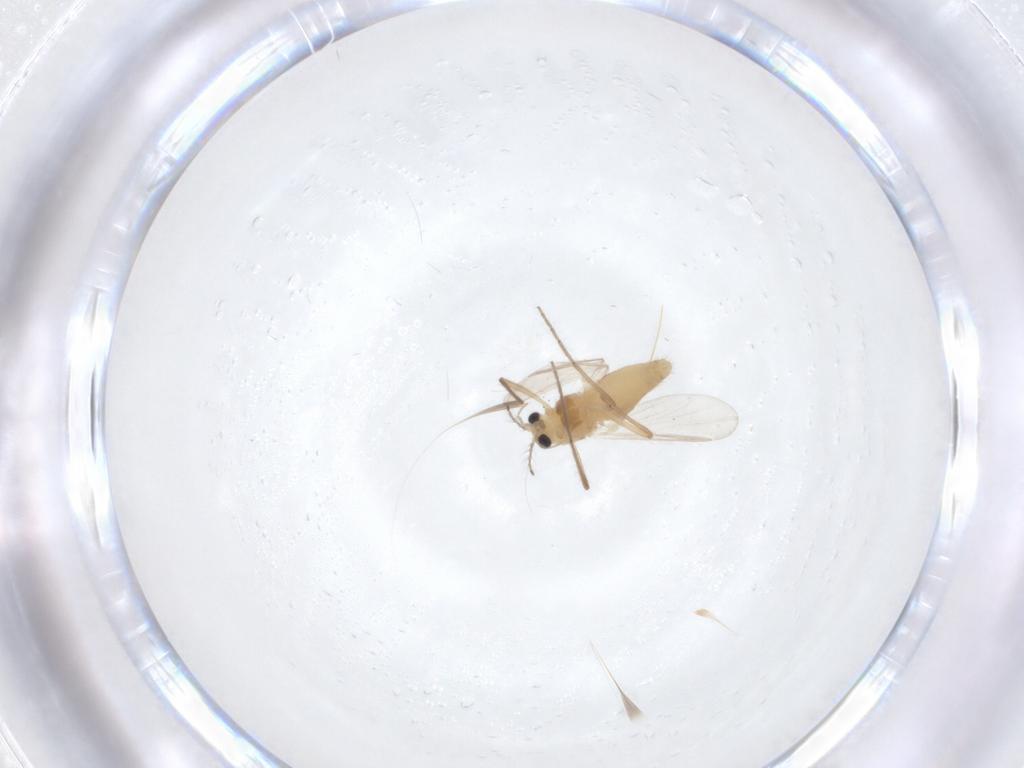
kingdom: Animalia
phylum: Arthropoda
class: Insecta
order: Diptera
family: Chironomidae
